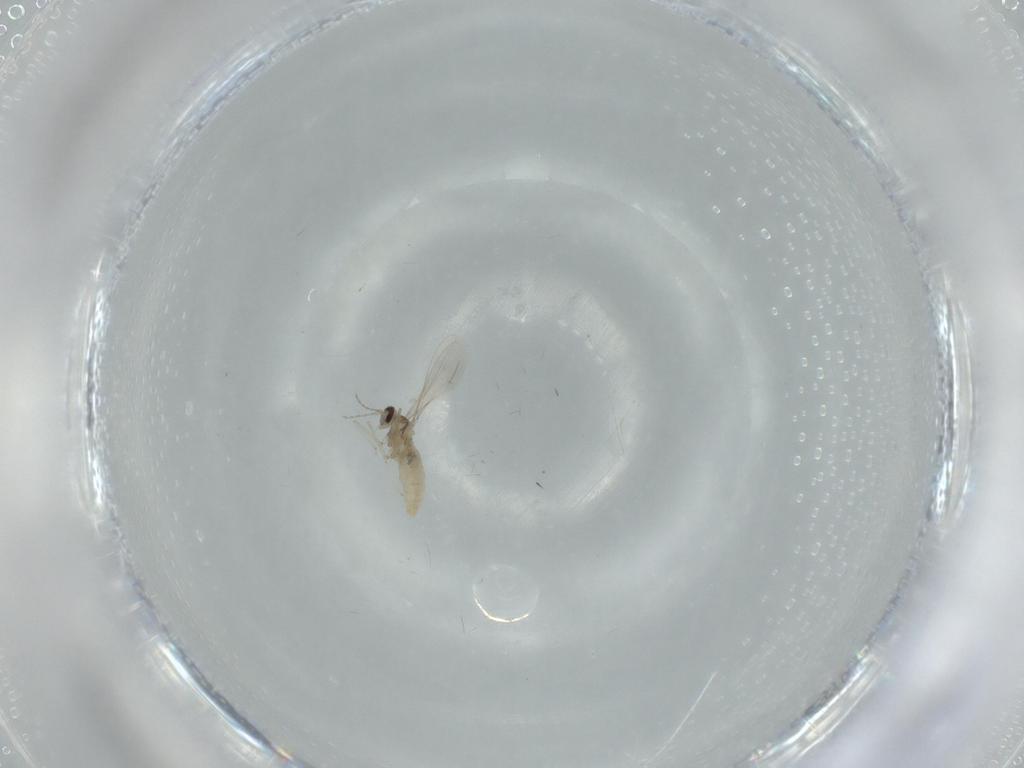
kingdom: Animalia
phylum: Arthropoda
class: Insecta
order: Diptera
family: Cecidomyiidae
